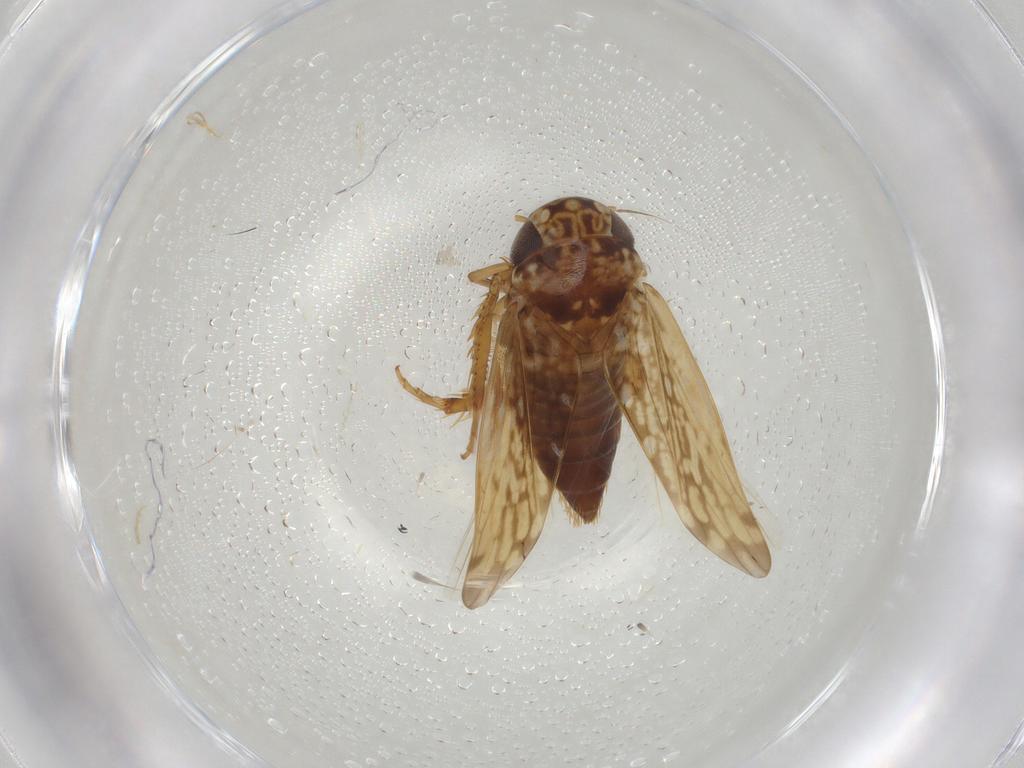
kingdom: Animalia
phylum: Arthropoda
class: Insecta
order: Hemiptera
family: Cicadellidae
